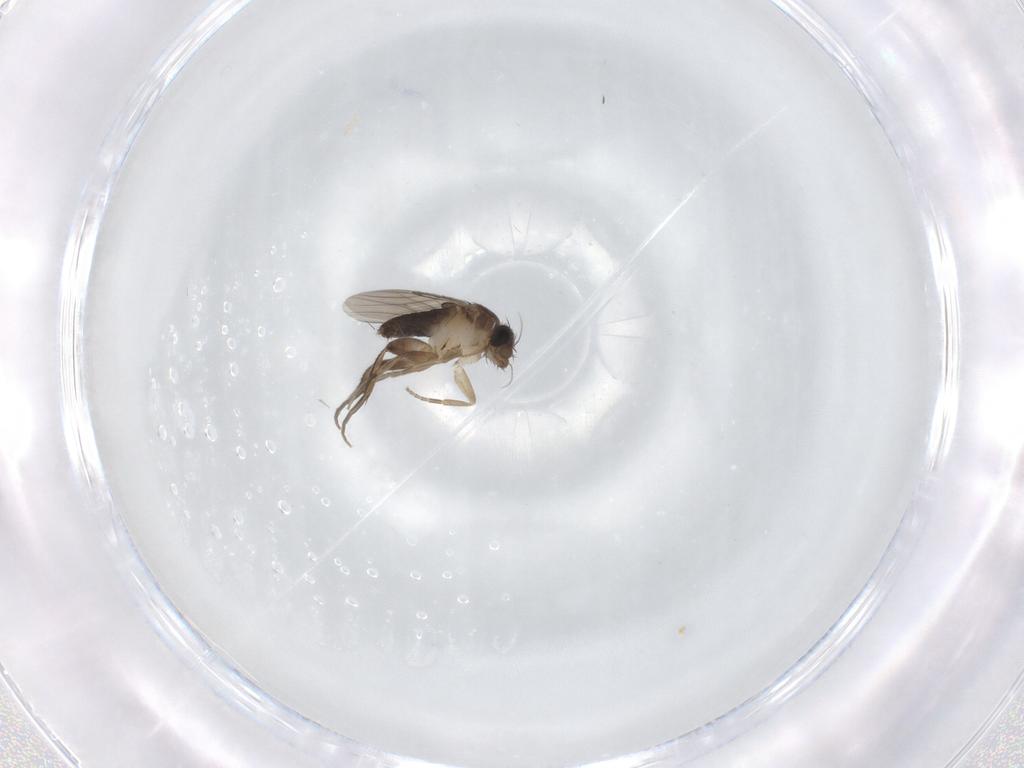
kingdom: Animalia
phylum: Arthropoda
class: Insecta
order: Diptera
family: Phoridae
